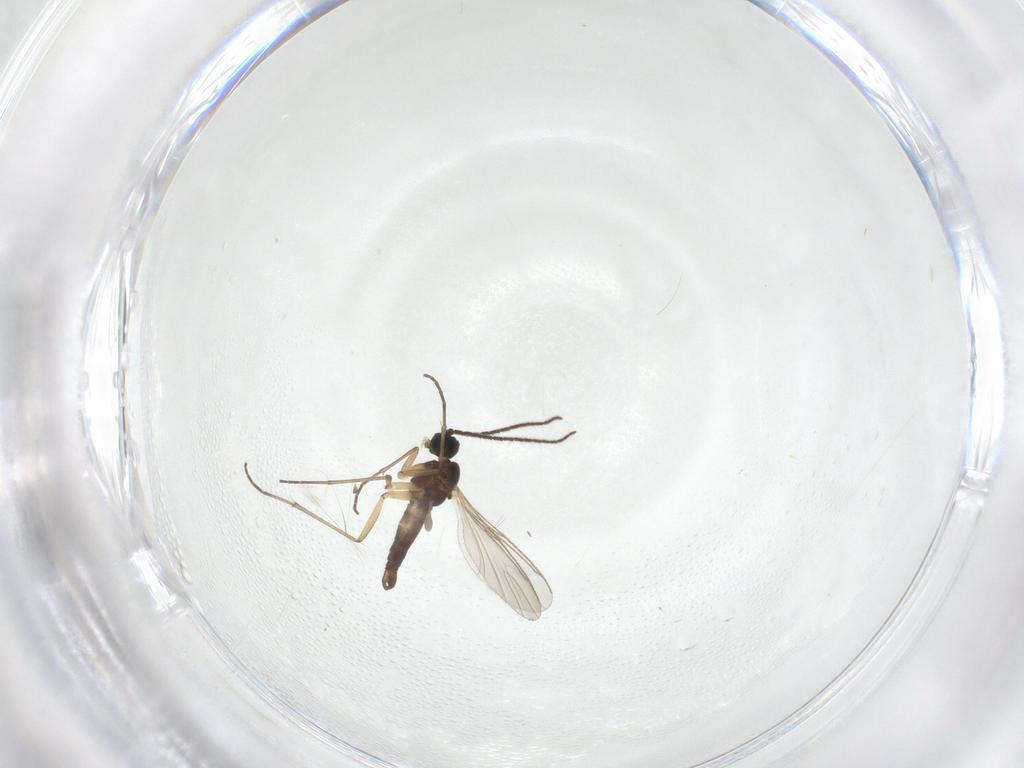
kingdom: Animalia
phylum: Arthropoda
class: Insecta
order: Diptera
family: Sciaridae
